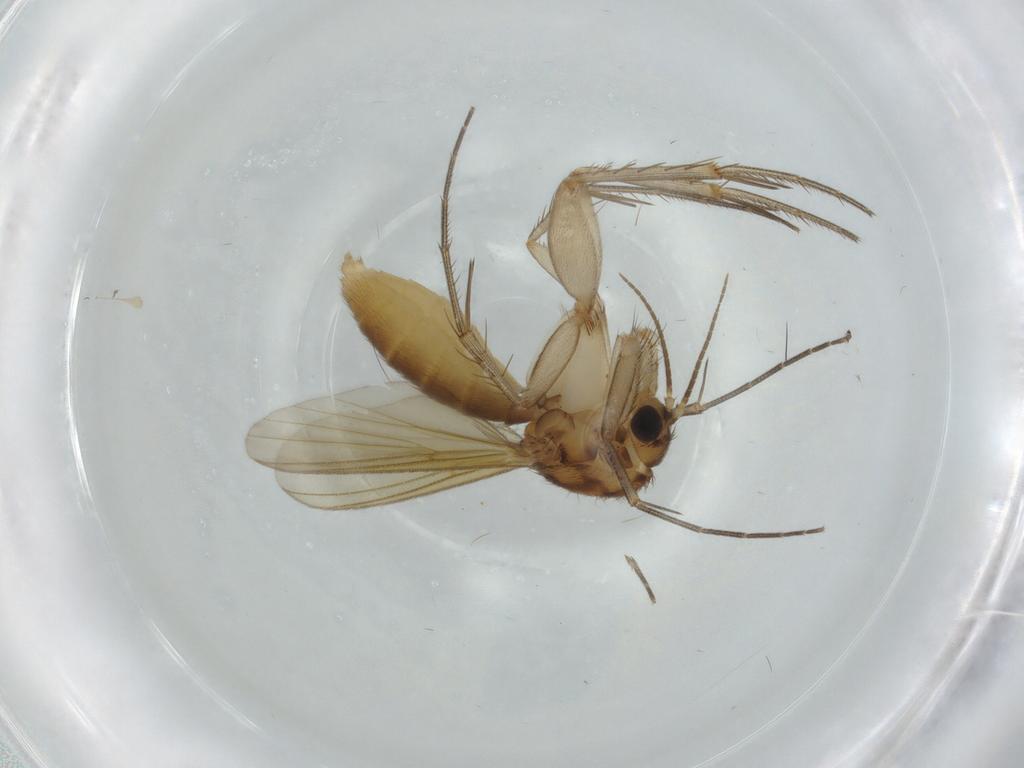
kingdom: Animalia
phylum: Arthropoda
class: Insecta
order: Diptera
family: Mycetophilidae
